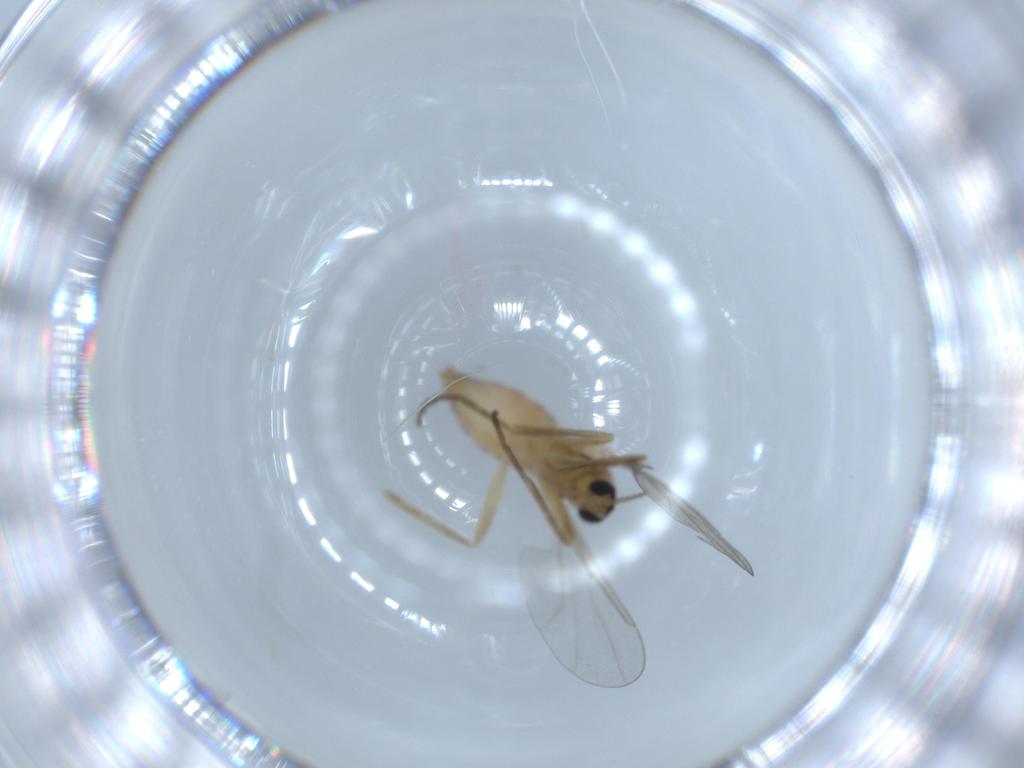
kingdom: Animalia
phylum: Arthropoda
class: Insecta
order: Diptera
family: Cecidomyiidae
